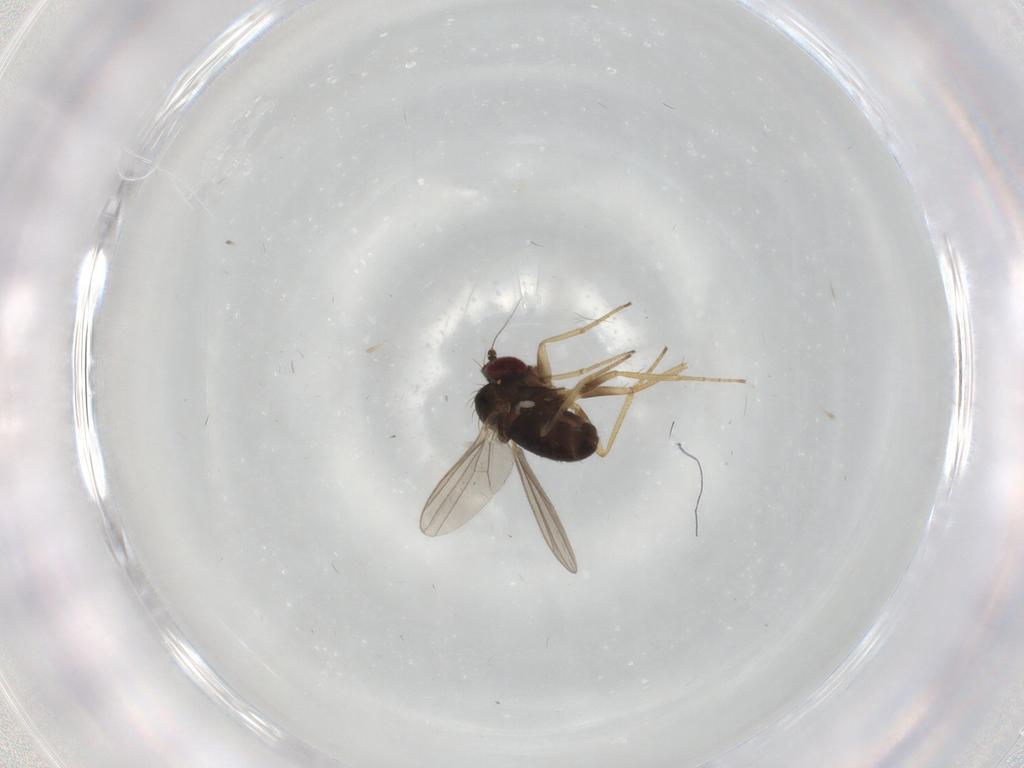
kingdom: Animalia
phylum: Arthropoda
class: Insecta
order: Diptera
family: Dolichopodidae
